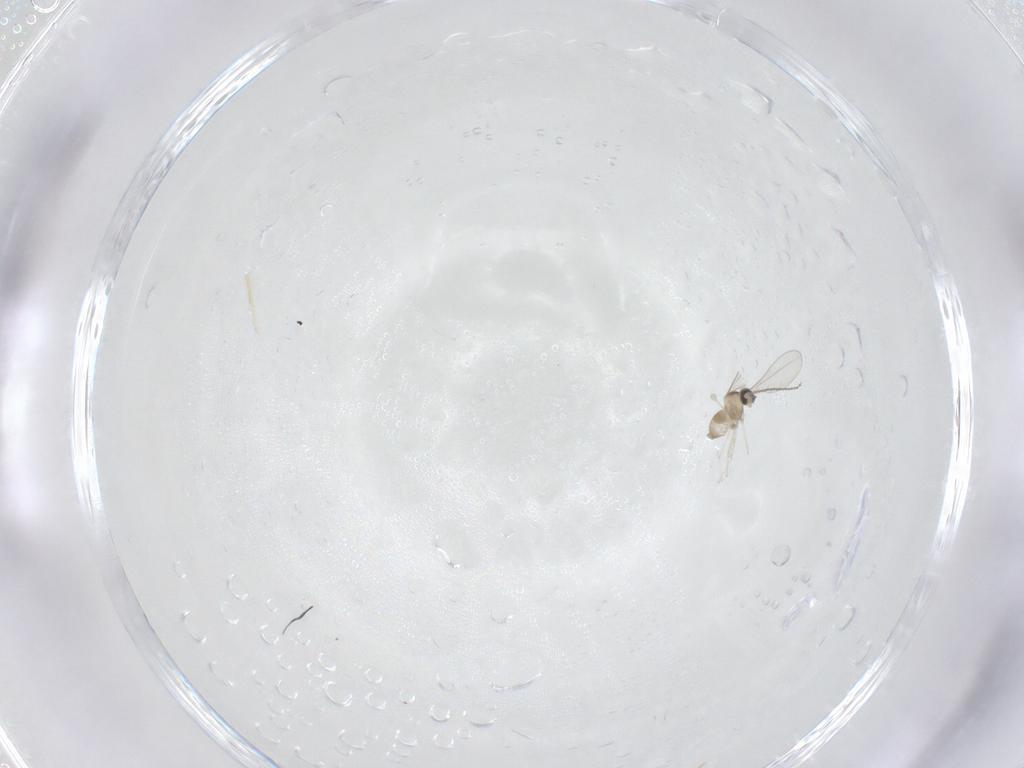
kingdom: Animalia
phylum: Arthropoda
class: Insecta
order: Diptera
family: Cecidomyiidae
